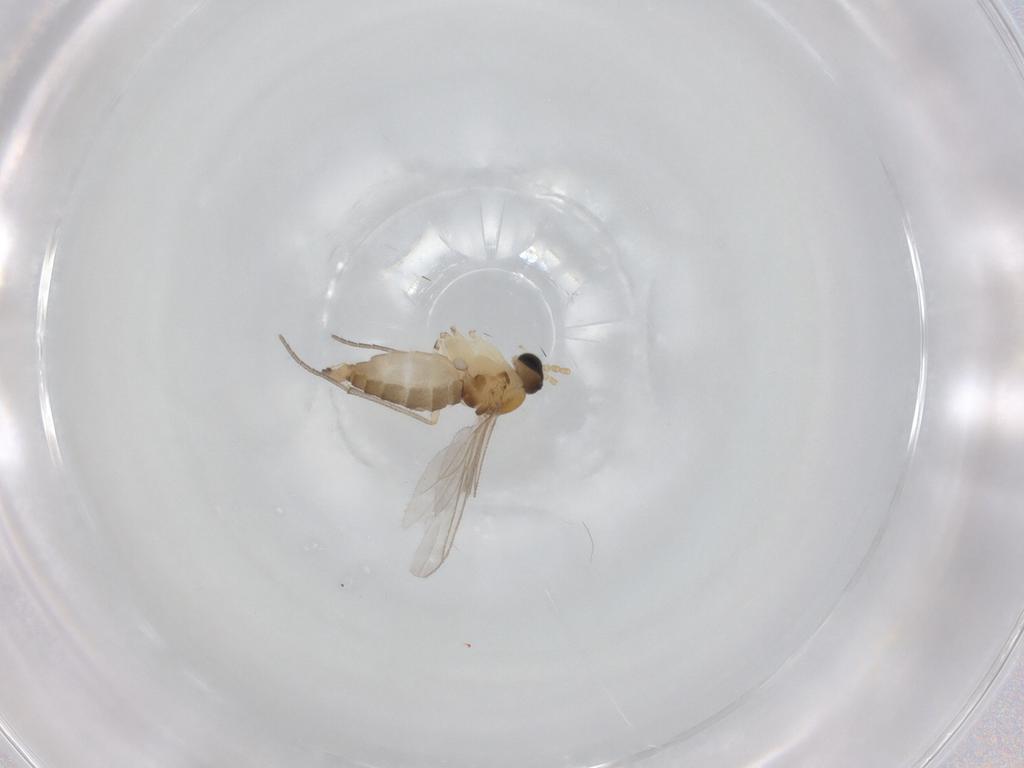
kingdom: Animalia
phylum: Arthropoda
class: Insecta
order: Diptera
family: Sciaridae
